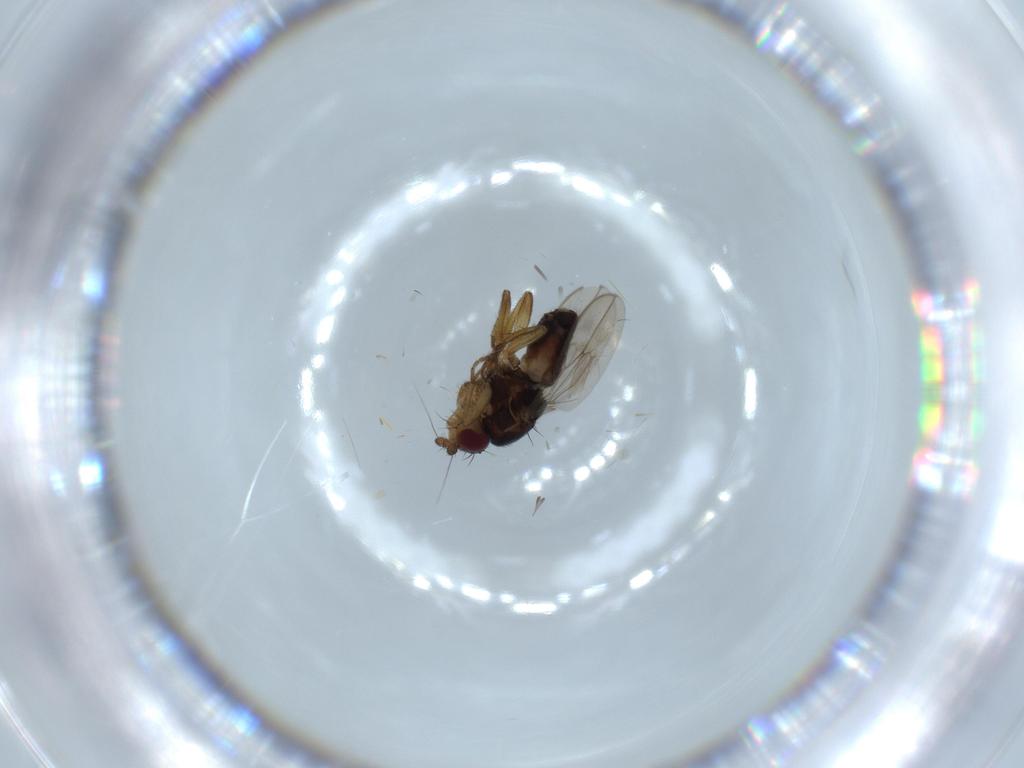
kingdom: Animalia
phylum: Arthropoda
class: Insecta
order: Diptera
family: Sphaeroceridae
